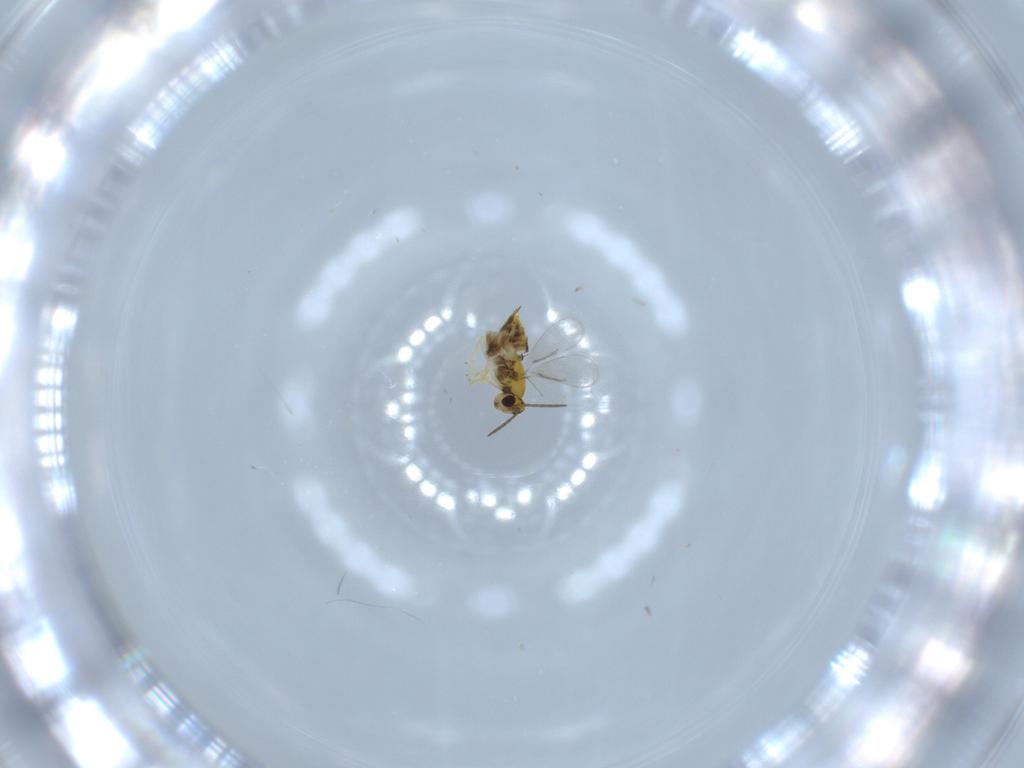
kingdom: Animalia
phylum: Arthropoda
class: Insecta
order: Hymenoptera
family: Aphelinidae
